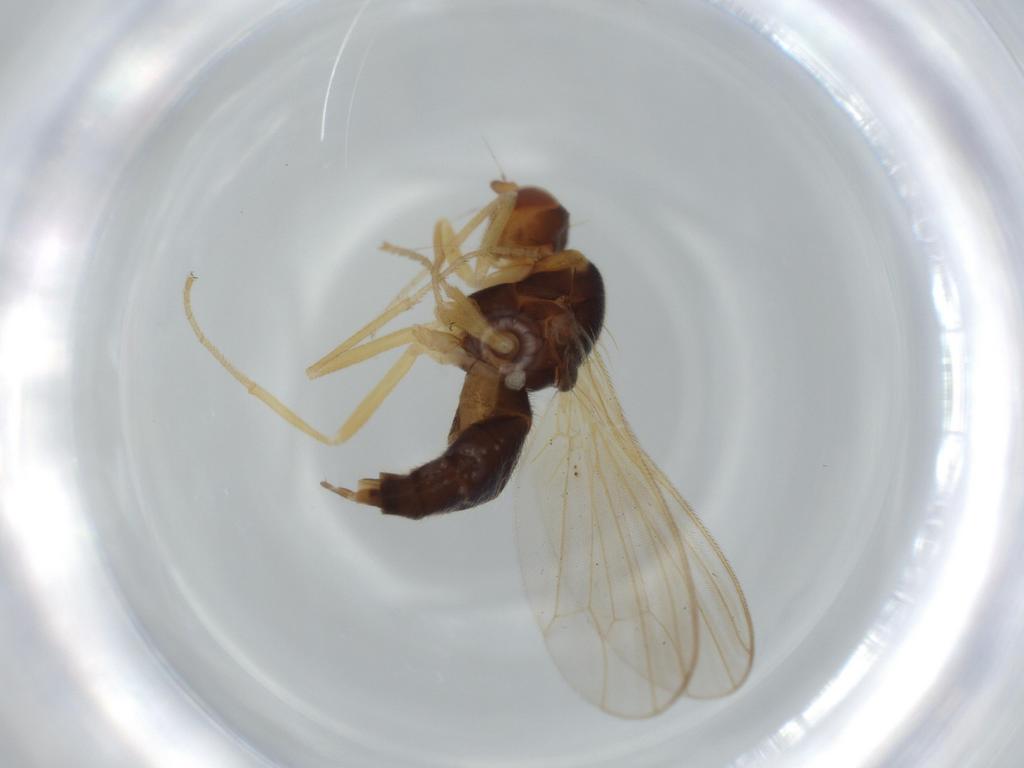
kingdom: Animalia
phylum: Arthropoda
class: Insecta
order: Diptera
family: Psilidae
